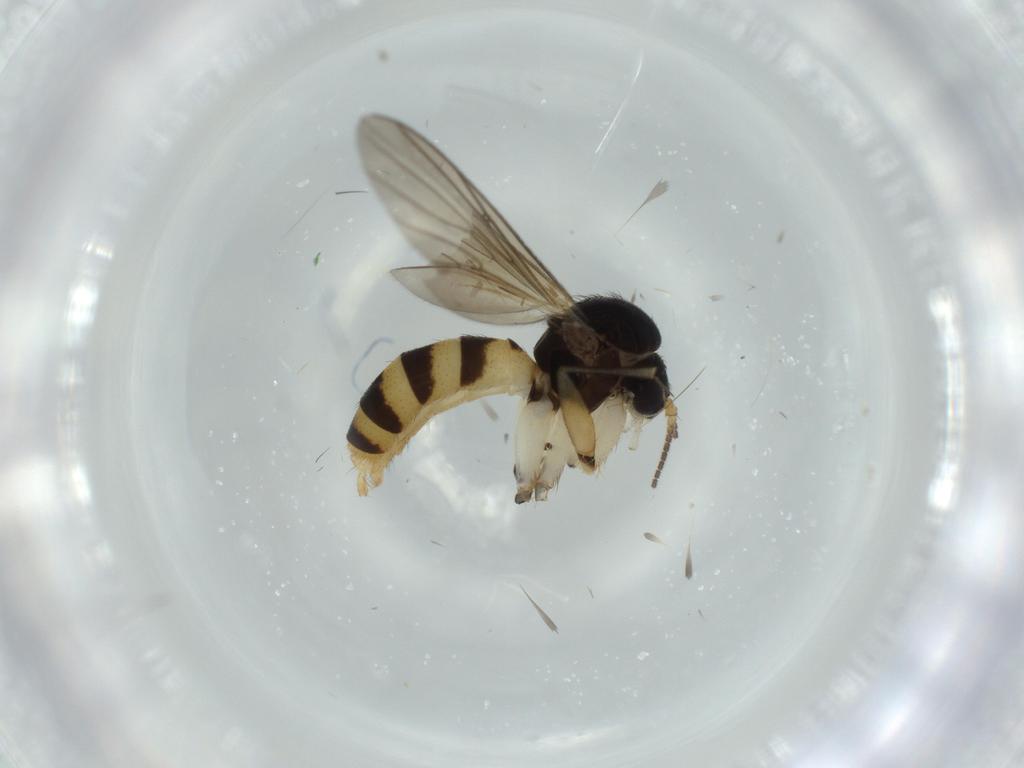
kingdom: Animalia
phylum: Arthropoda
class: Insecta
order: Diptera
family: Mycetophilidae
